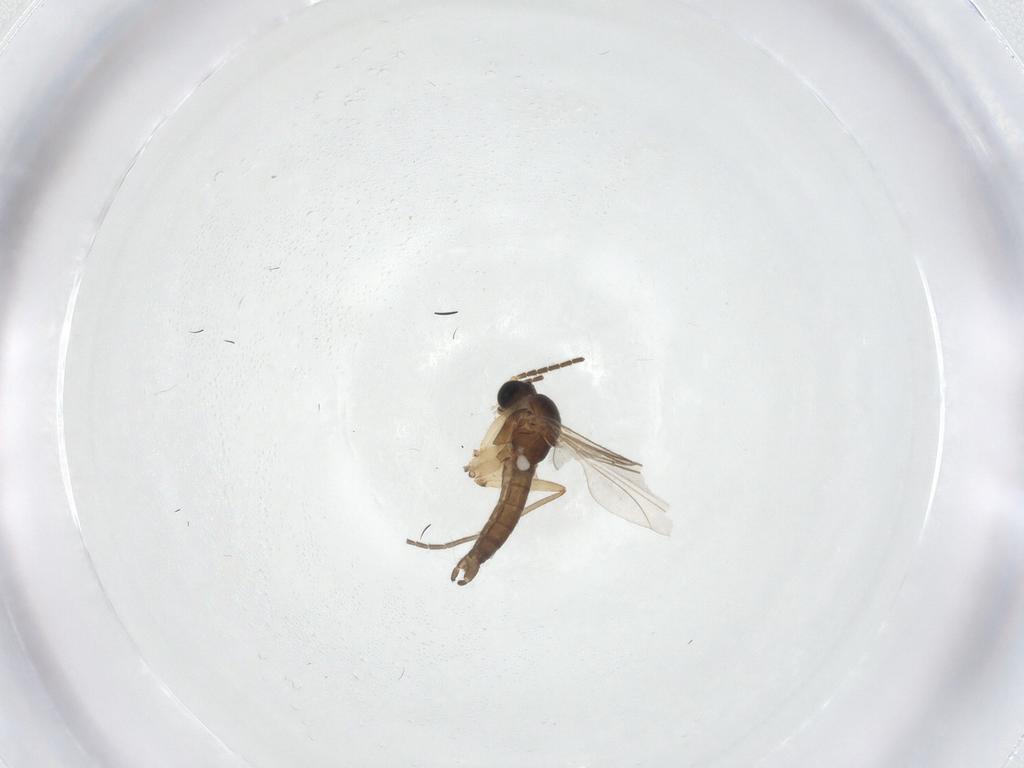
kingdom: Animalia
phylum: Arthropoda
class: Insecta
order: Diptera
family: Sciaridae
